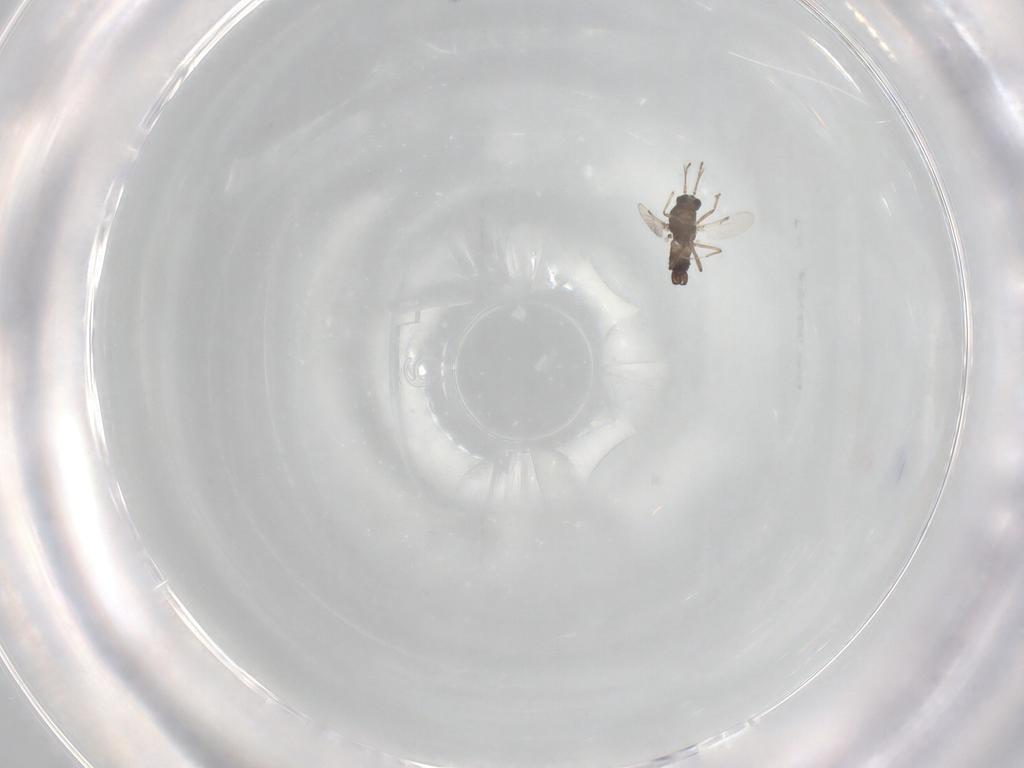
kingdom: Animalia
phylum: Arthropoda
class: Insecta
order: Diptera
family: Ceratopogonidae
